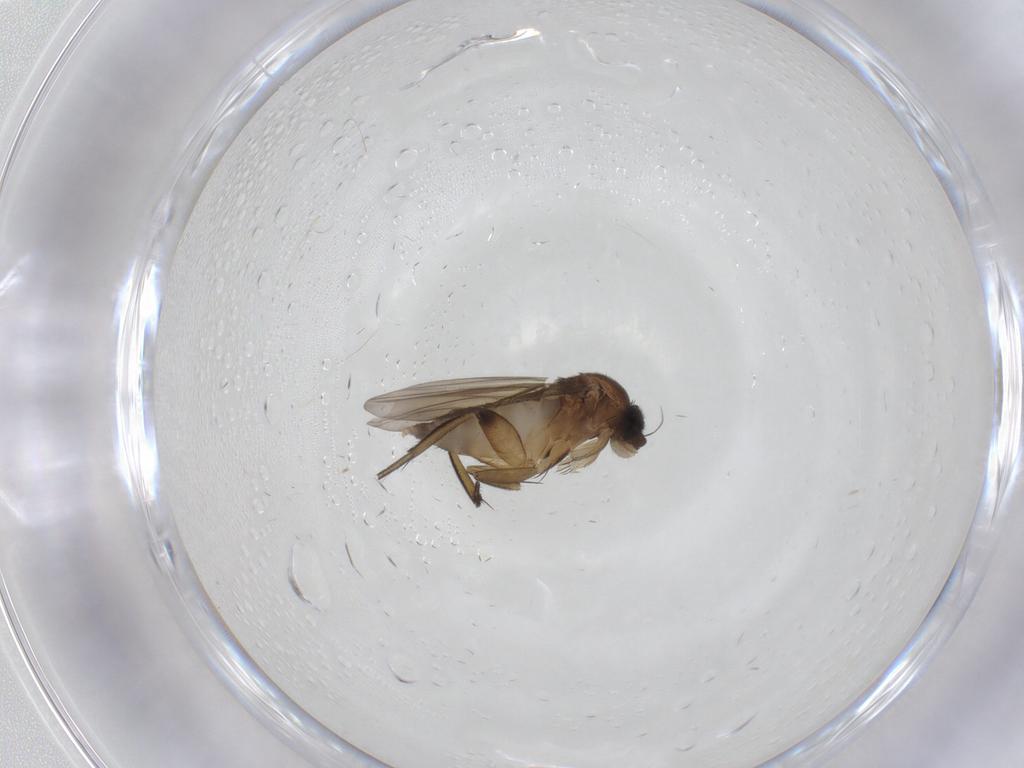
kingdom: Animalia
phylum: Arthropoda
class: Insecta
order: Diptera
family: Phoridae
